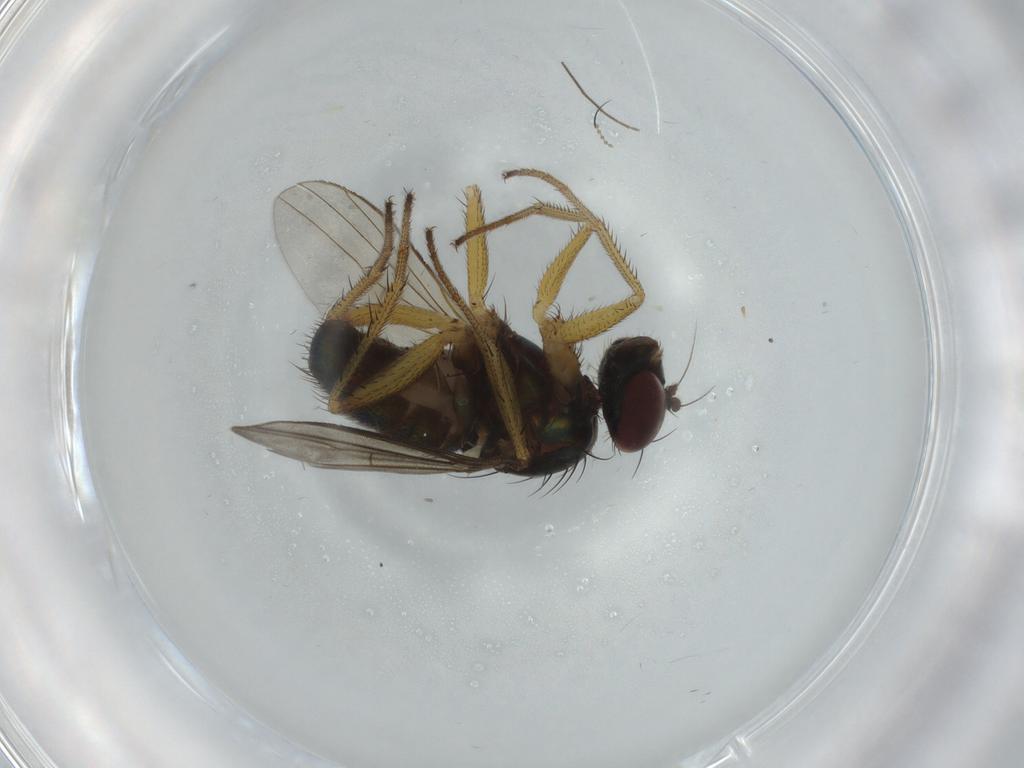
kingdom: Animalia
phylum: Arthropoda
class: Insecta
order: Diptera
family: Dolichopodidae
